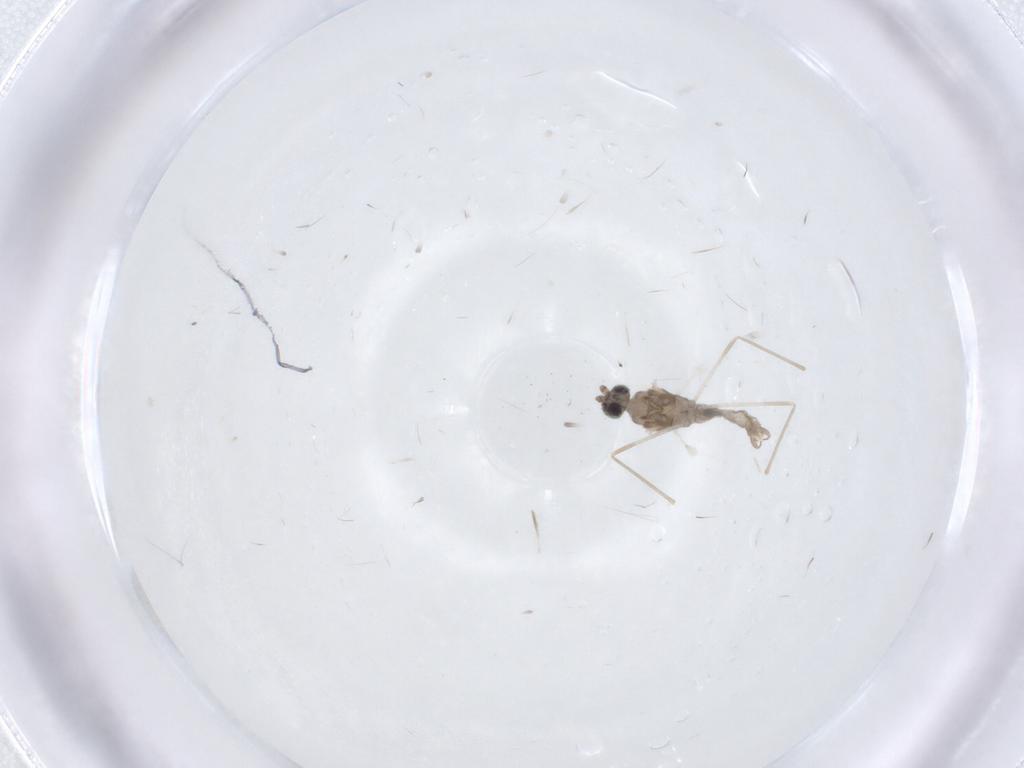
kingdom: Animalia
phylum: Arthropoda
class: Insecta
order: Diptera
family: Cecidomyiidae
